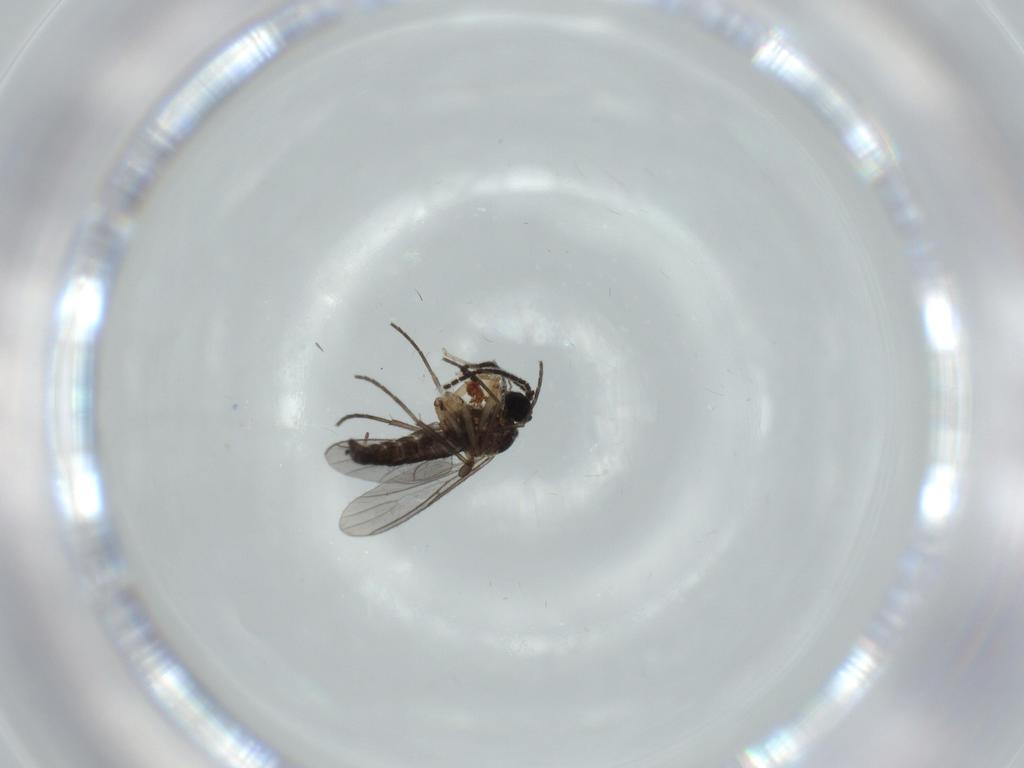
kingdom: Animalia
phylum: Arthropoda
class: Insecta
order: Diptera
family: Sciaridae
